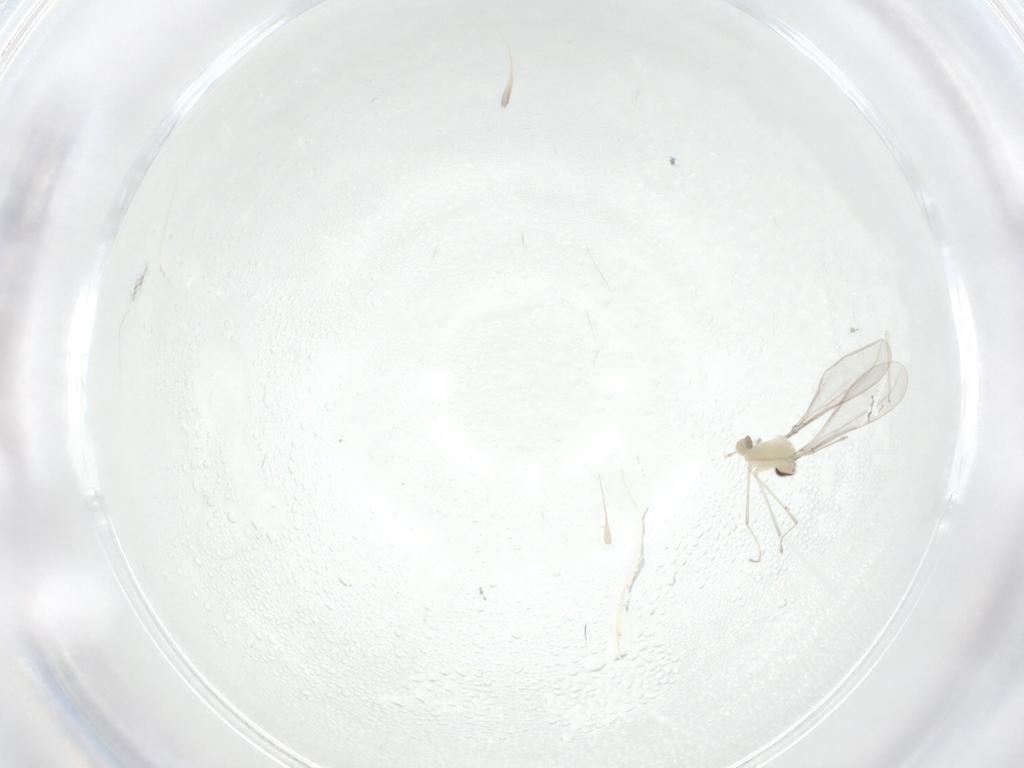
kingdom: Animalia
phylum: Arthropoda
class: Insecta
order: Diptera
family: Cecidomyiidae
